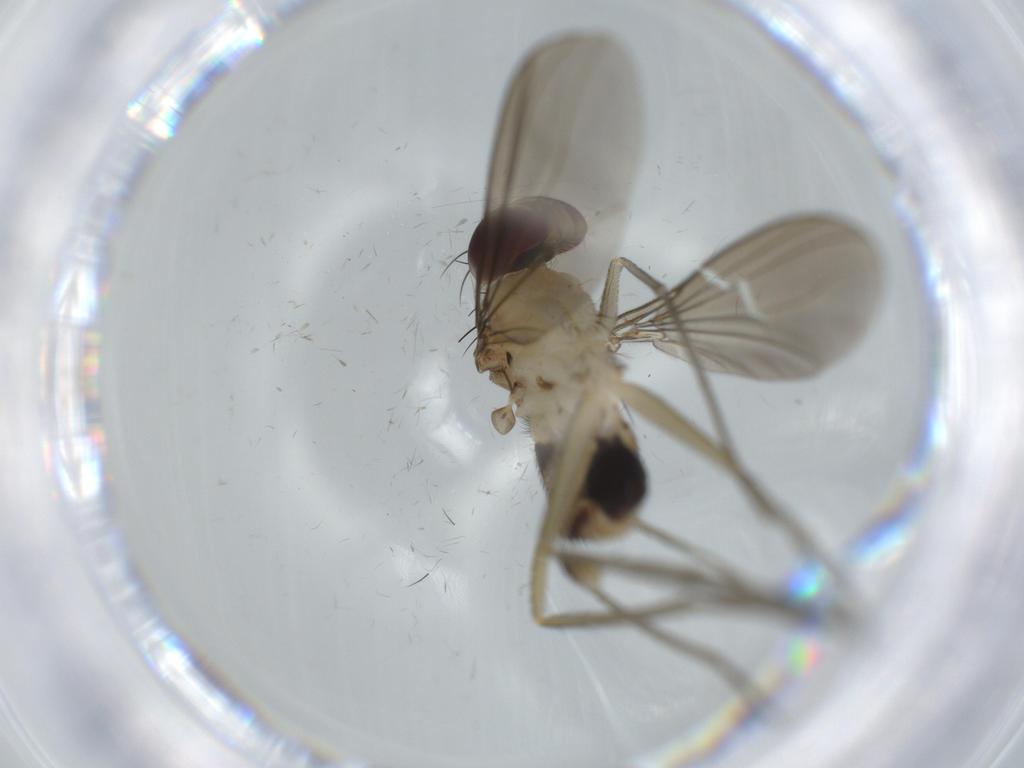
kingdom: Animalia
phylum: Arthropoda
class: Insecta
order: Diptera
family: Dolichopodidae
